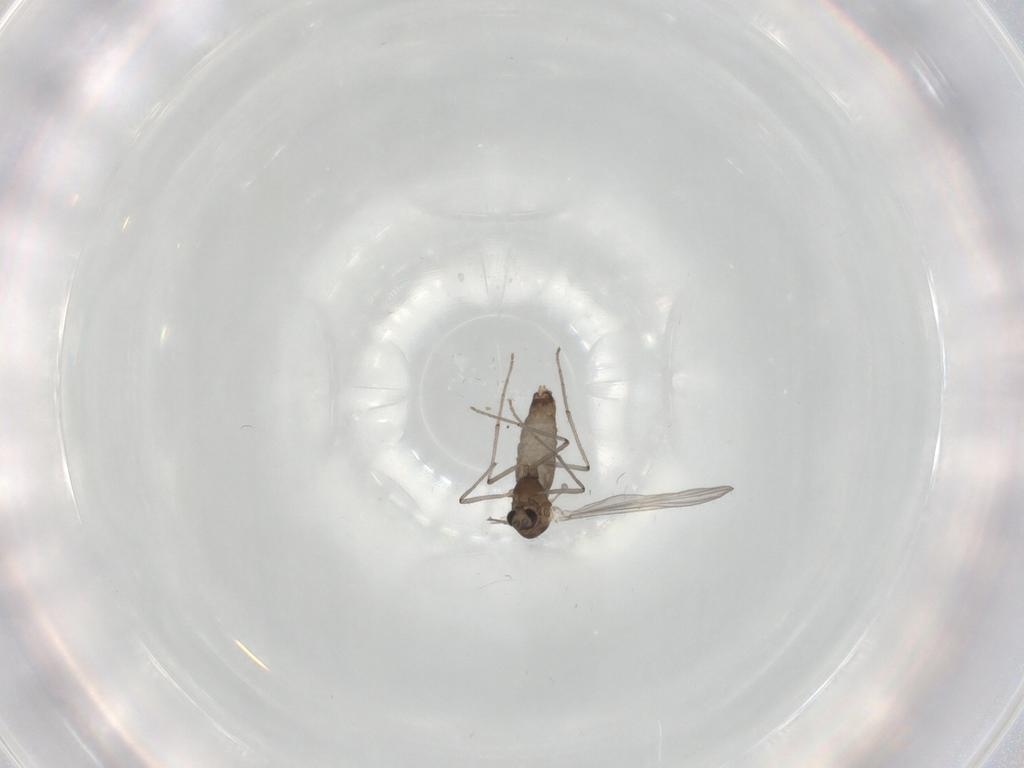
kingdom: Animalia
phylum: Arthropoda
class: Insecta
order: Diptera
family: Chironomidae
